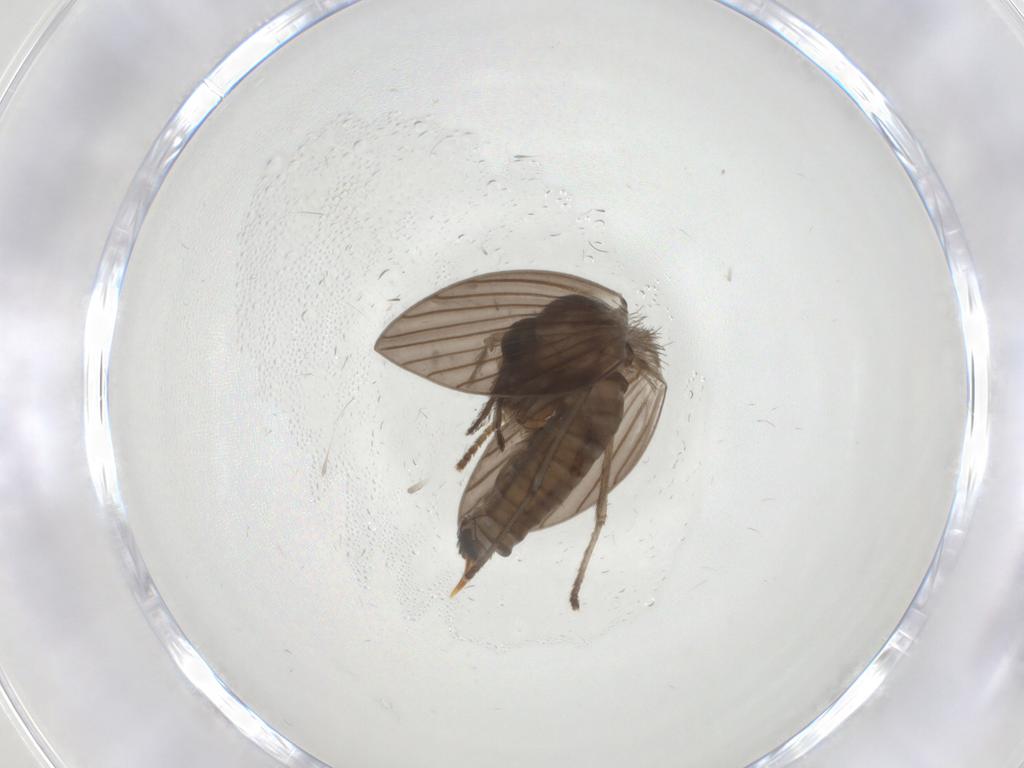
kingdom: Animalia
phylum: Arthropoda
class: Insecta
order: Diptera
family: Psychodidae
